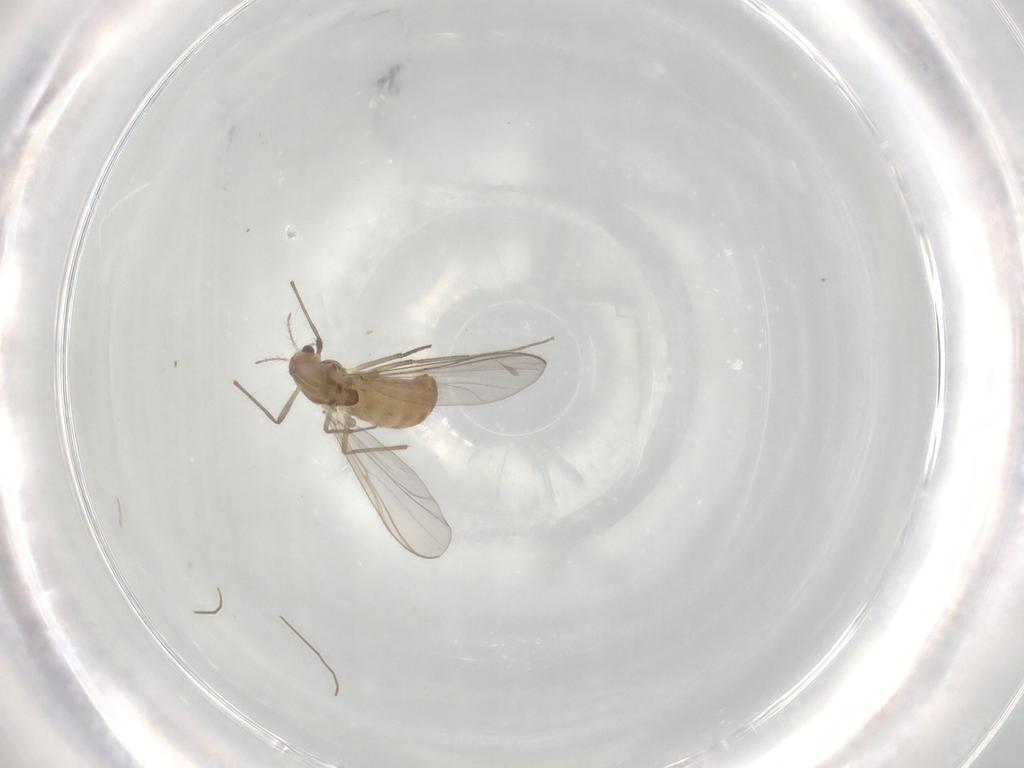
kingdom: Animalia
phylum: Arthropoda
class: Insecta
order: Diptera
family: Chironomidae
